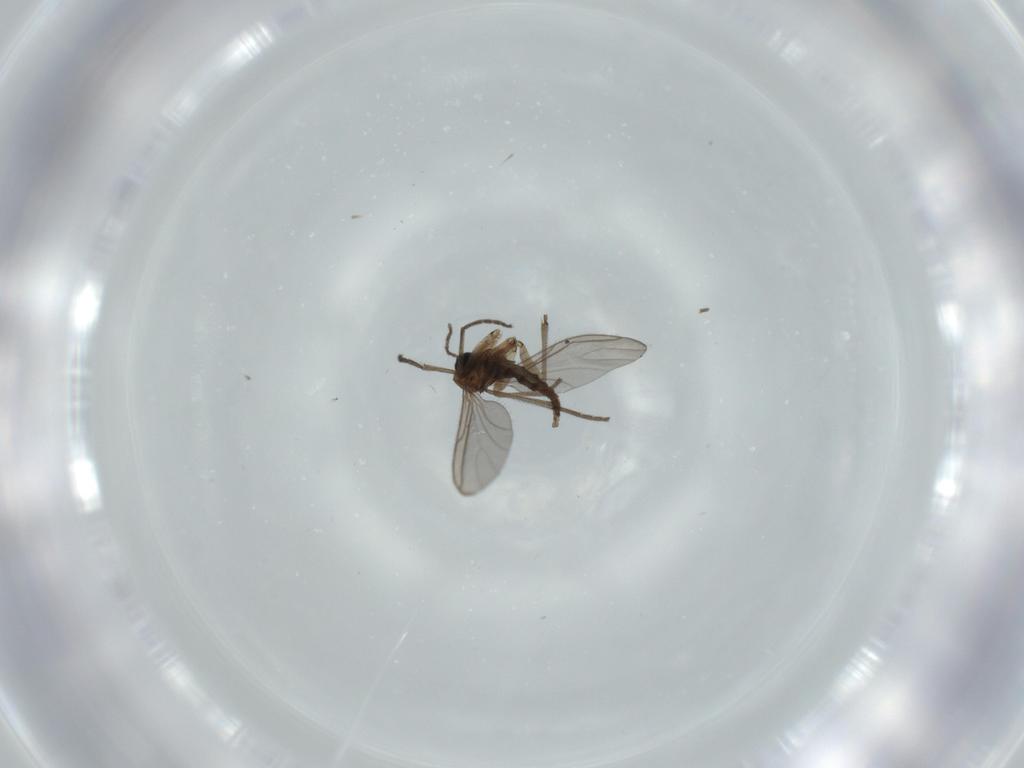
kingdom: Animalia
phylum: Arthropoda
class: Insecta
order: Diptera
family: Sciaridae
